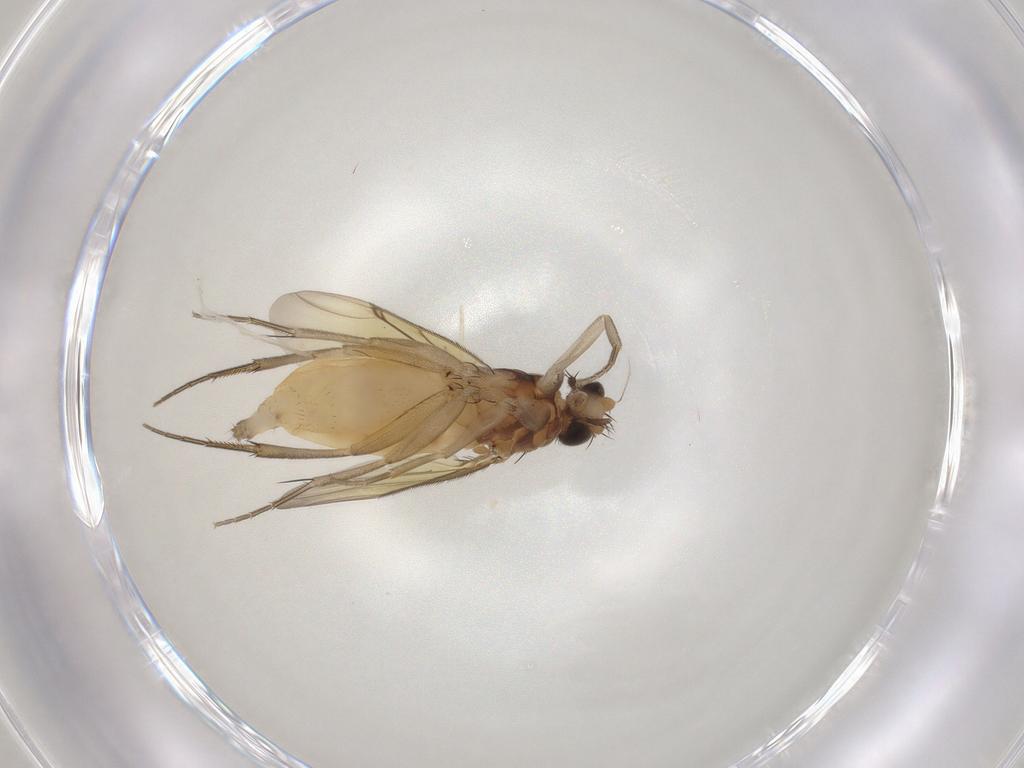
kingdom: Animalia
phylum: Arthropoda
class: Insecta
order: Diptera
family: Phoridae
